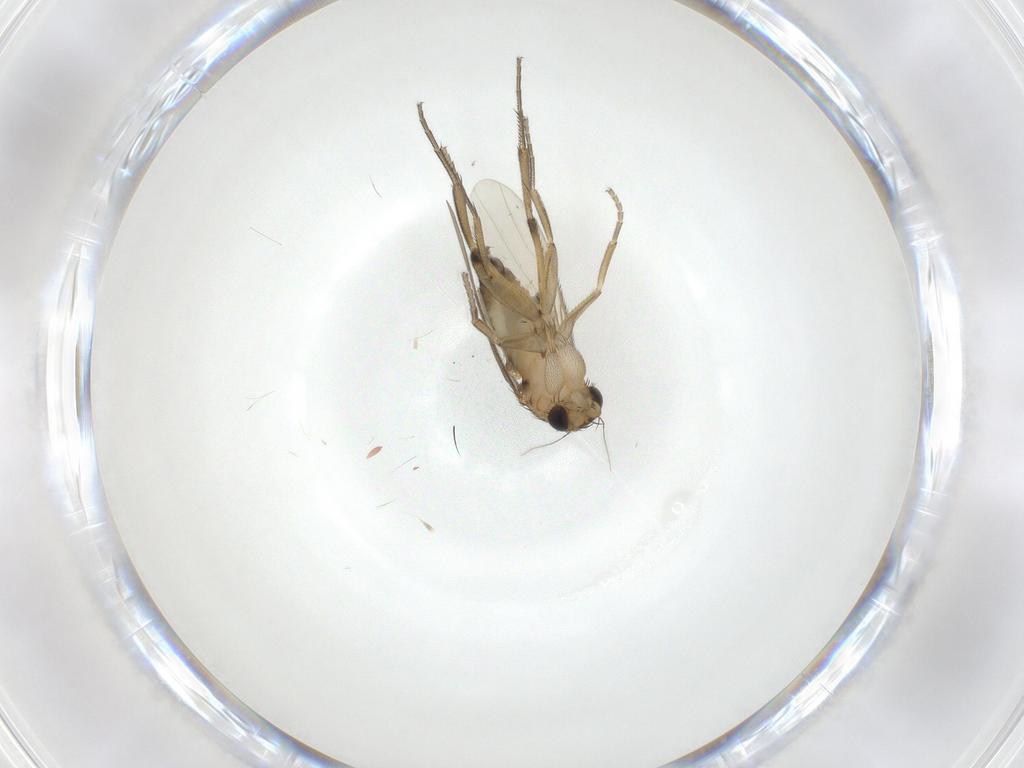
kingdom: Animalia
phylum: Arthropoda
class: Insecta
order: Diptera
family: Phoridae
